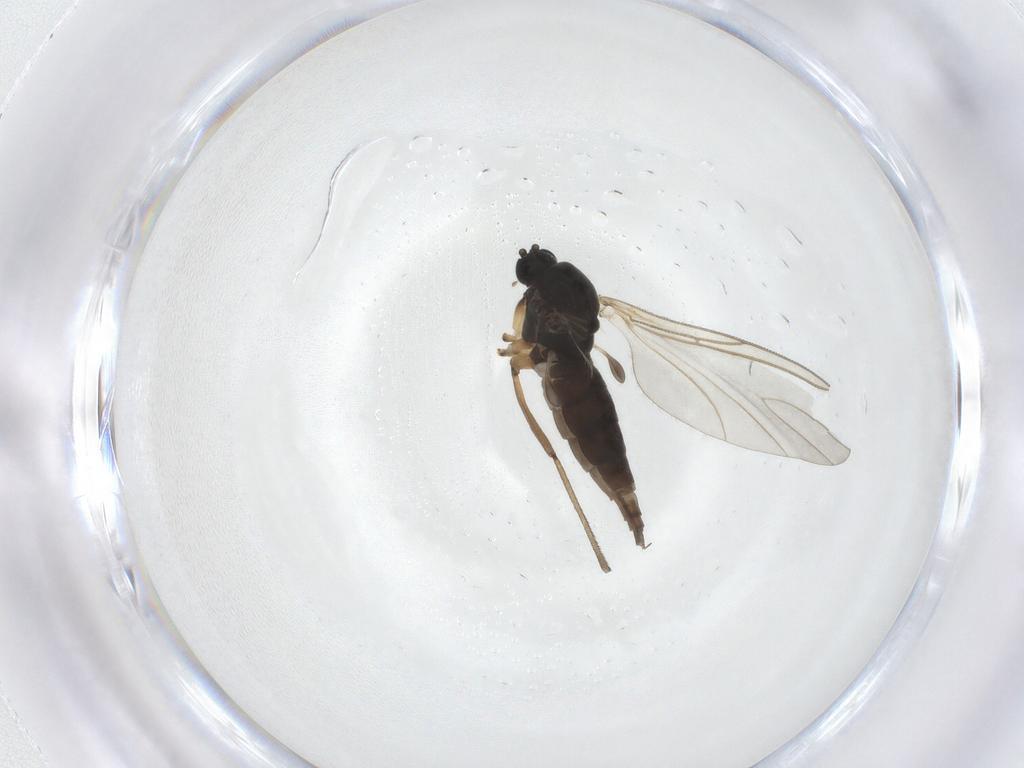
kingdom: Animalia
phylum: Arthropoda
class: Insecta
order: Diptera
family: Sciaridae
